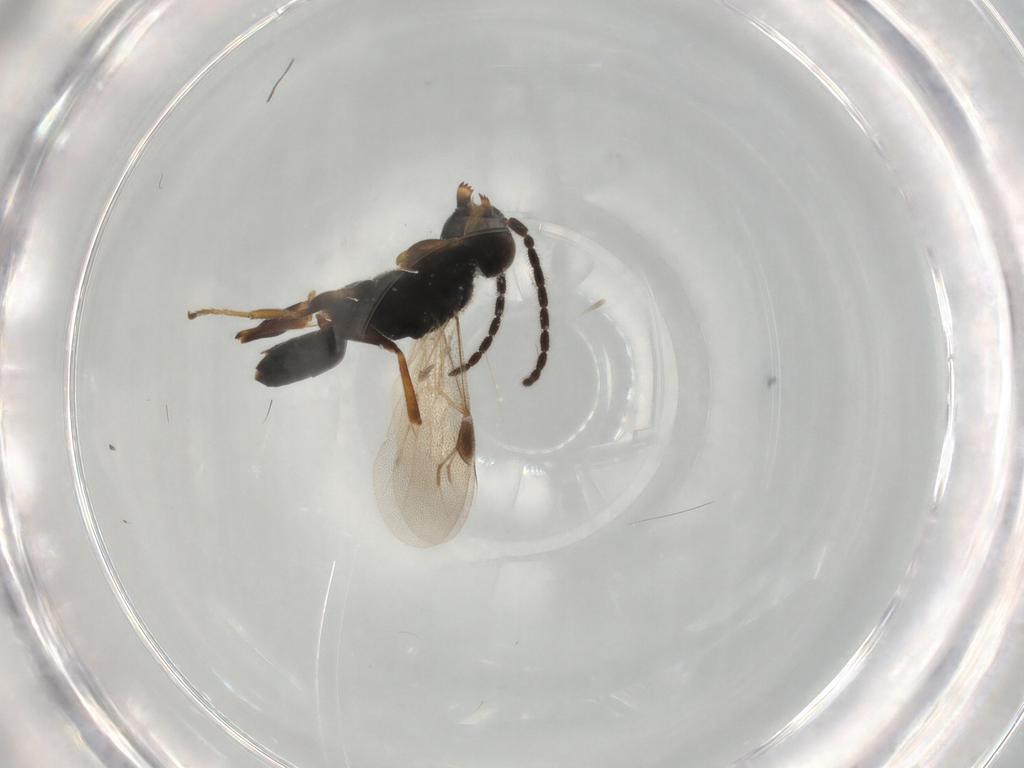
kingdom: Animalia
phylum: Arthropoda
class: Insecta
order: Hymenoptera
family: Dryinidae
